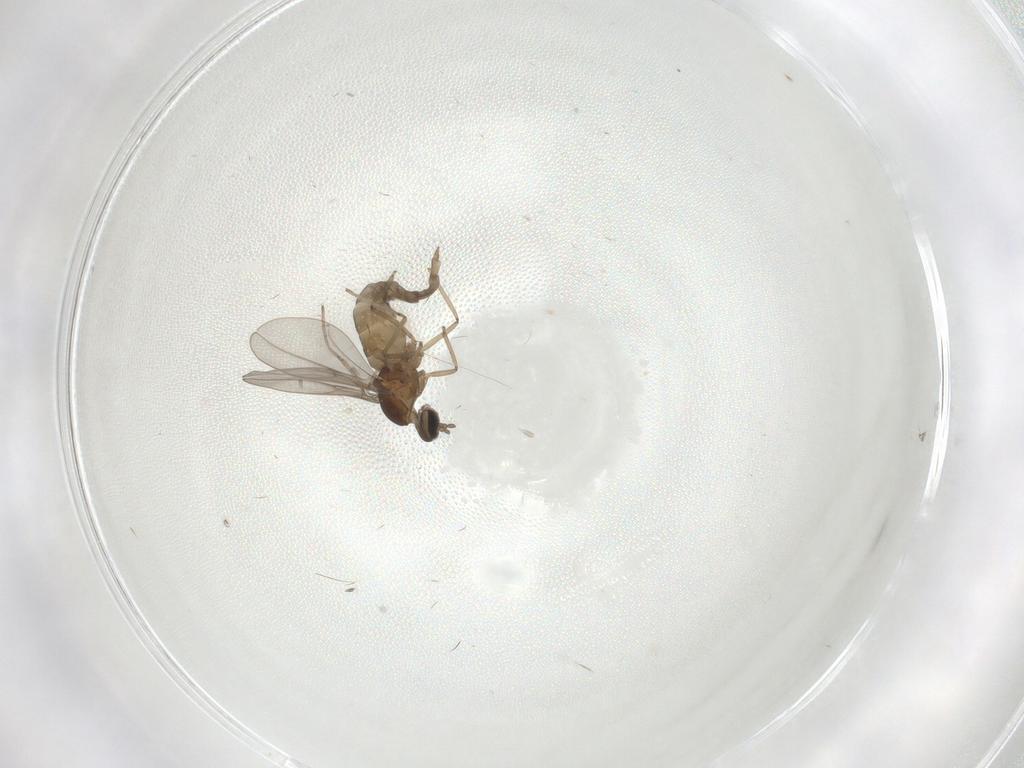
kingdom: Animalia
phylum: Arthropoda
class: Insecta
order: Diptera
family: Cecidomyiidae
